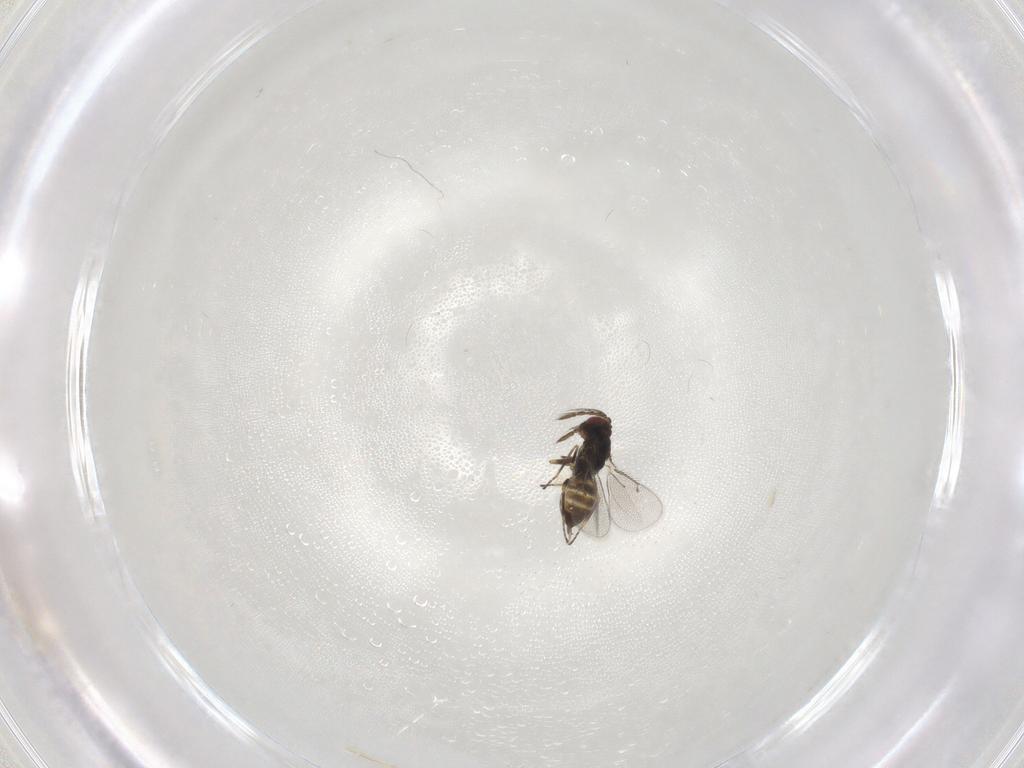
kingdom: Animalia
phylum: Arthropoda
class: Insecta
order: Hymenoptera
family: Eulophidae
